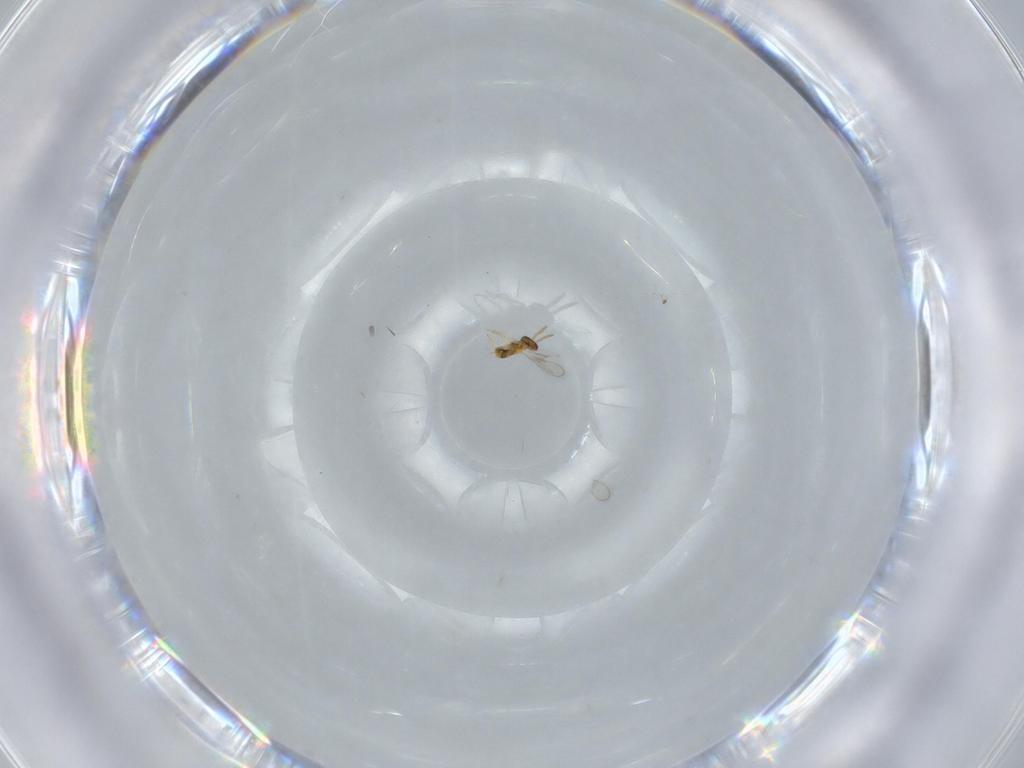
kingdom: Animalia
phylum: Arthropoda
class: Insecta
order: Hymenoptera
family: Aphelinidae
